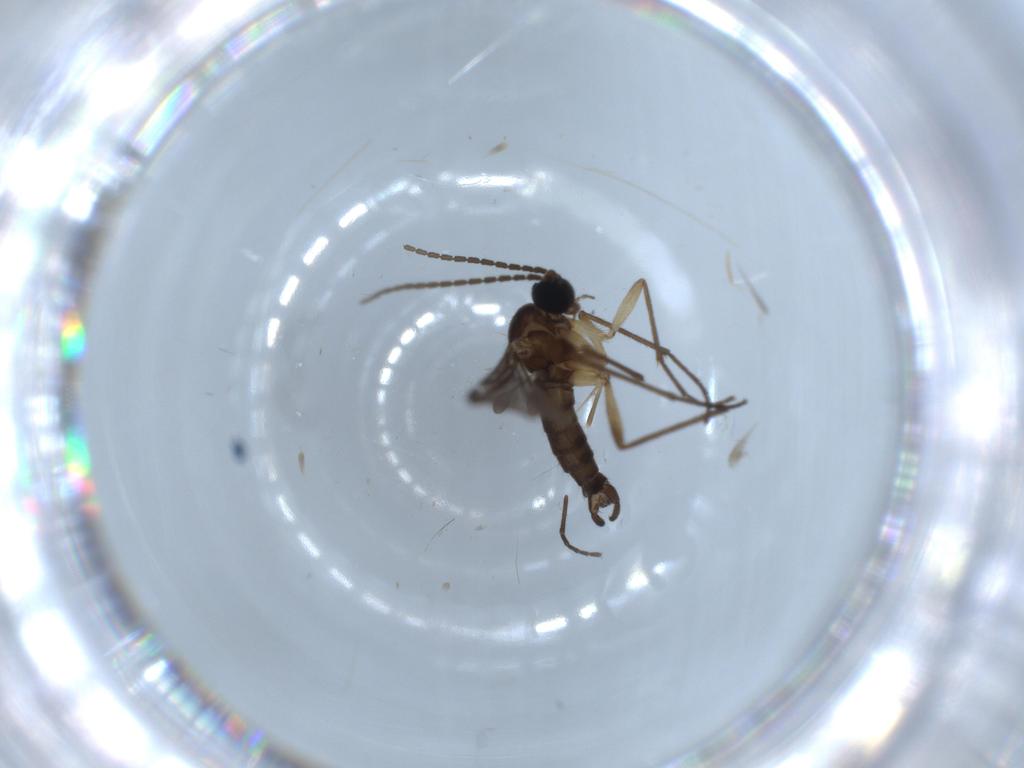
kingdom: Animalia
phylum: Arthropoda
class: Insecta
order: Diptera
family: Sciaridae
